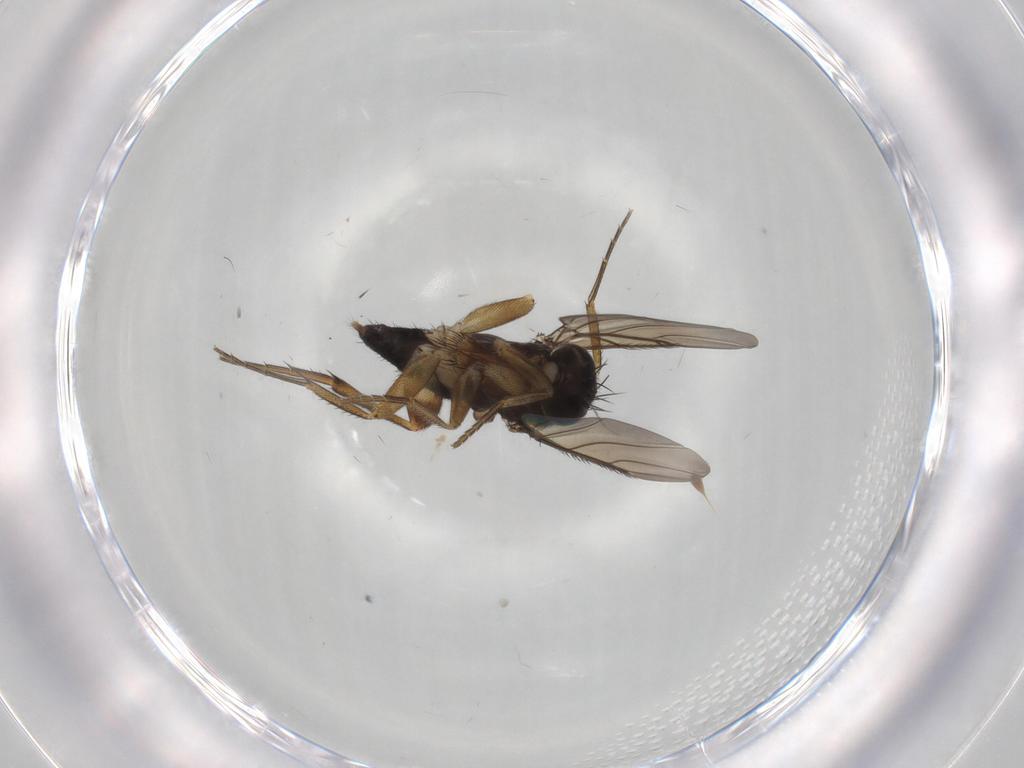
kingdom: Animalia
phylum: Arthropoda
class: Insecta
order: Diptera
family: Phoridae
